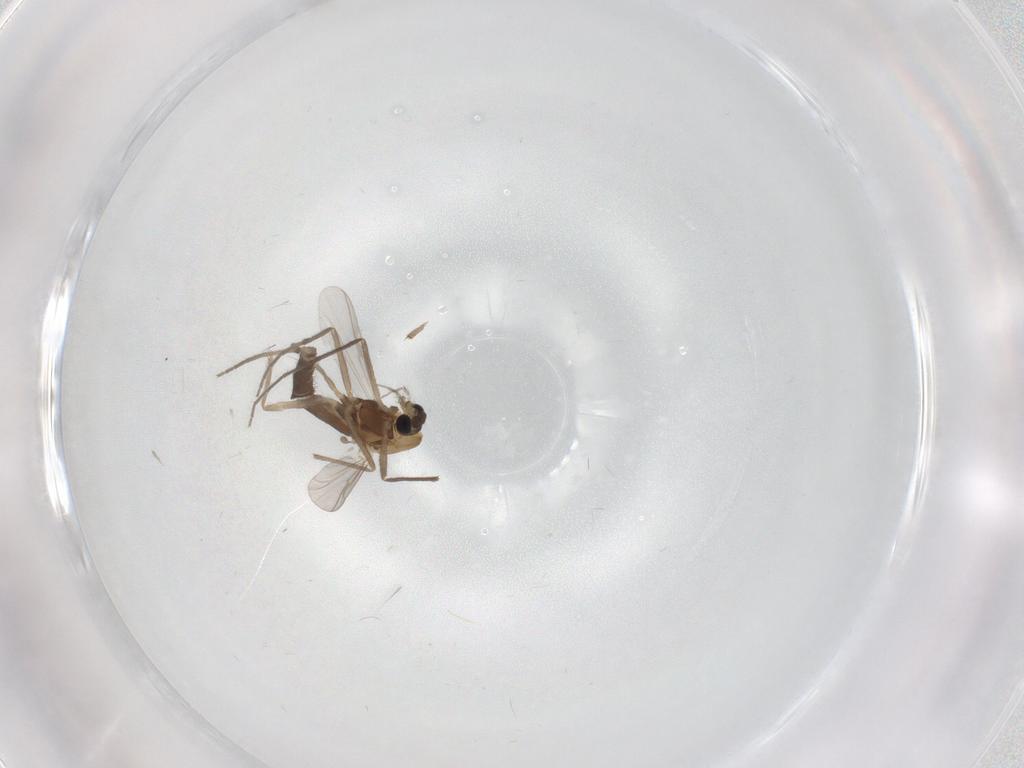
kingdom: Animalia
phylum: Arthropoda
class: Insecta
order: Diptera
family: Chironomidae
